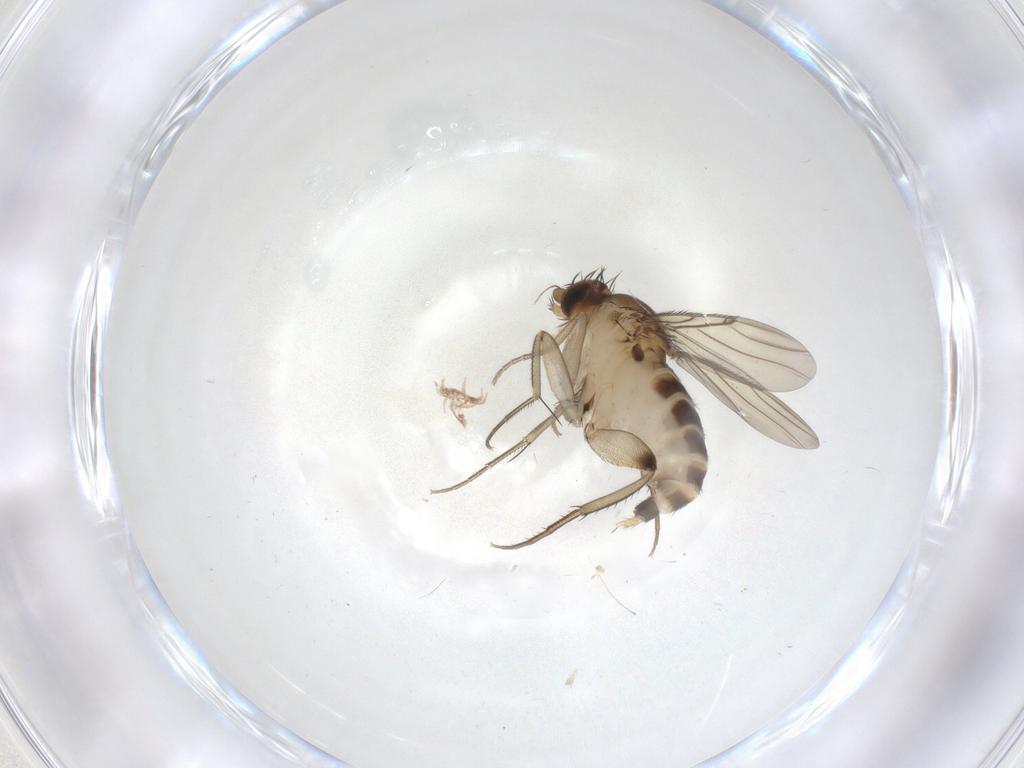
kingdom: Animalia
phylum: Arthropoda
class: Insecta
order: Diptera
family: Phoridae
